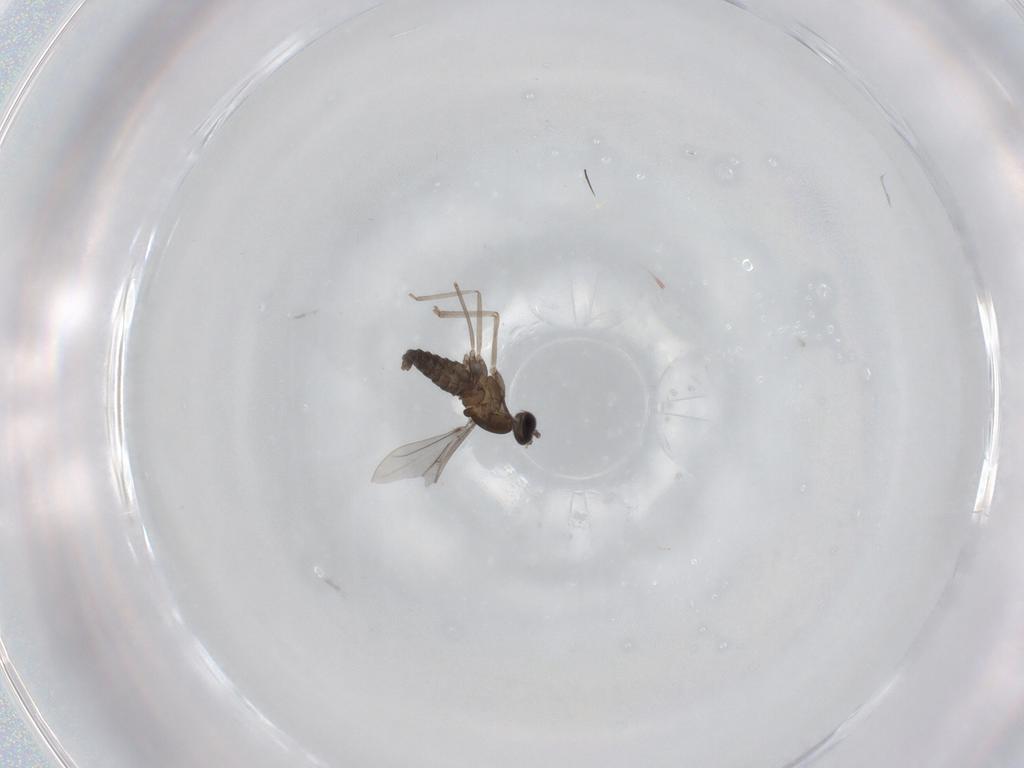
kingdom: Animalia
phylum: Arthropoda
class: Insecta
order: Diptera
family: Cecidomyiidae
